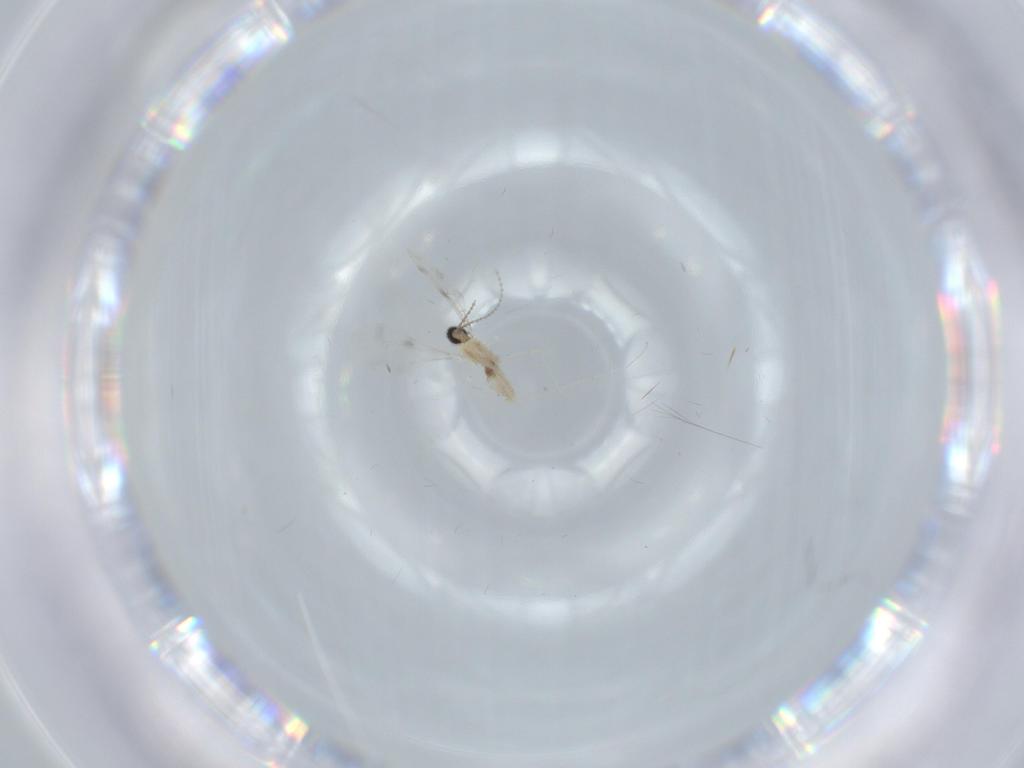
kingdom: Animalia
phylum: Arthropoda
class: Insecta
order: Diptera
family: Cecidomyiidae
